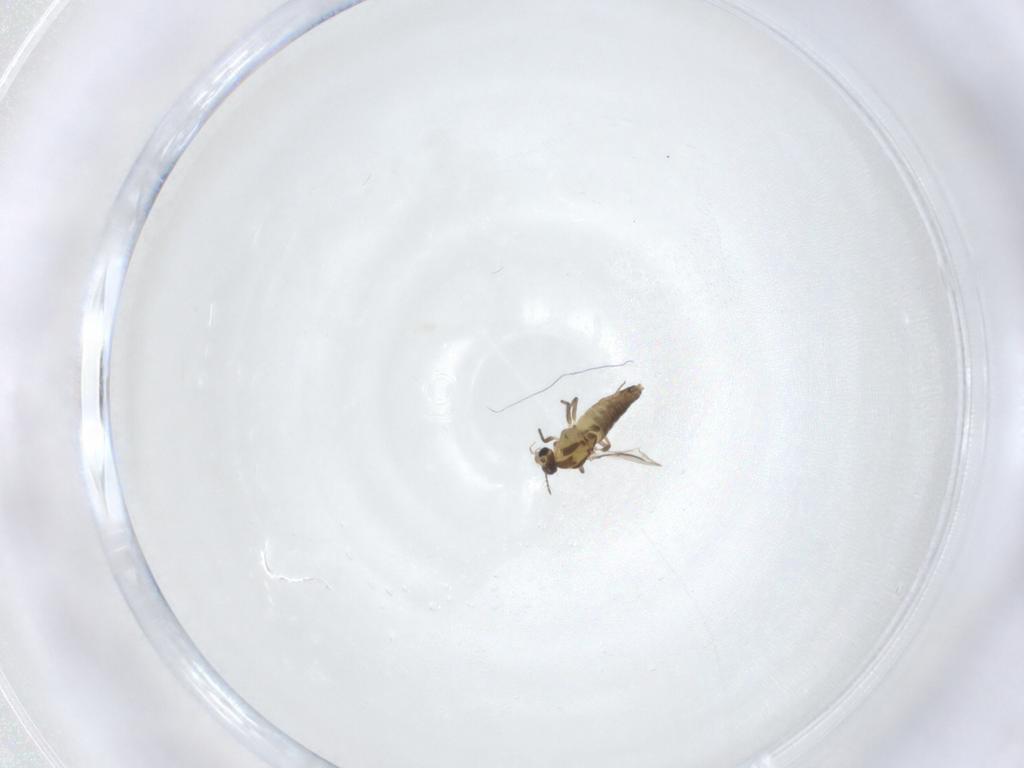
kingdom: Animalia
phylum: Arthropoda
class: Insecta
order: Diptera
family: Chironomidae
